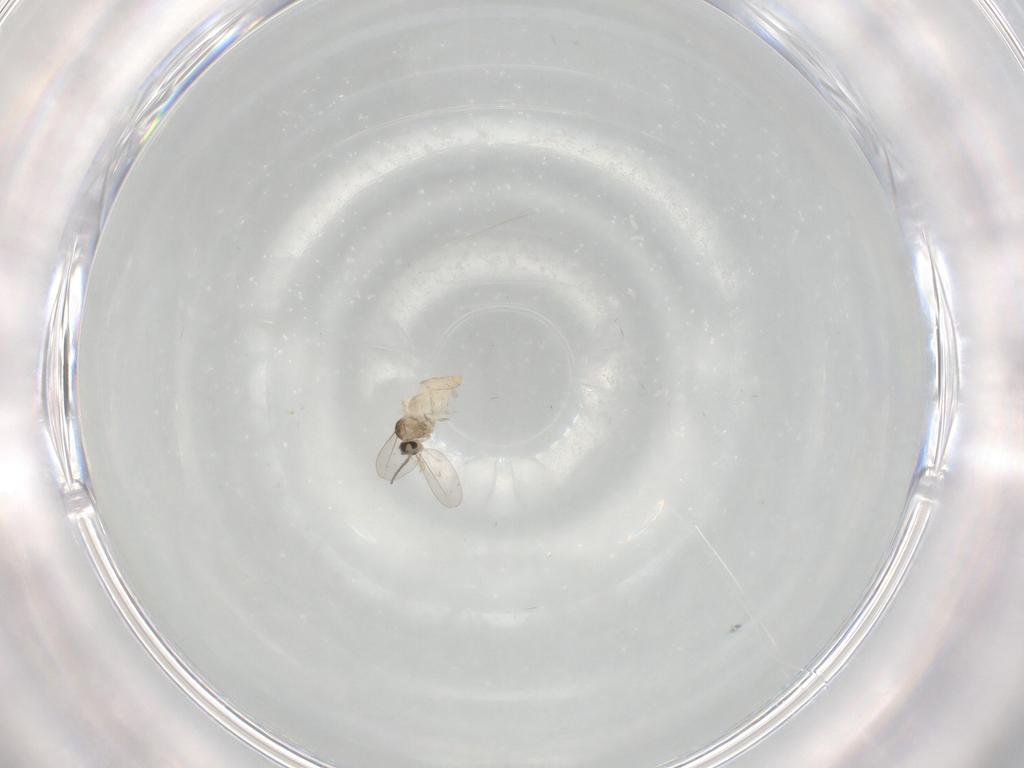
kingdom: Animalia
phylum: Arthropoda
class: Insecta
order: Diptera
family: Cecidomyiidae
